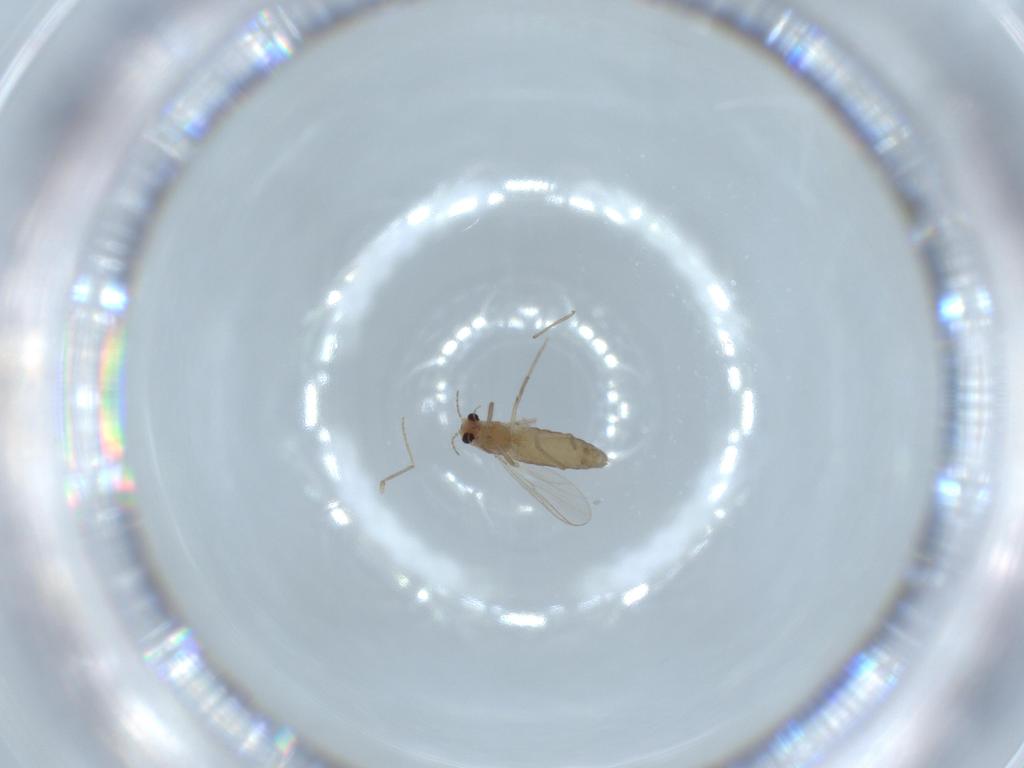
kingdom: Animalia
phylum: Arthropoda
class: Insecta
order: Diptera
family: Chironomidae
